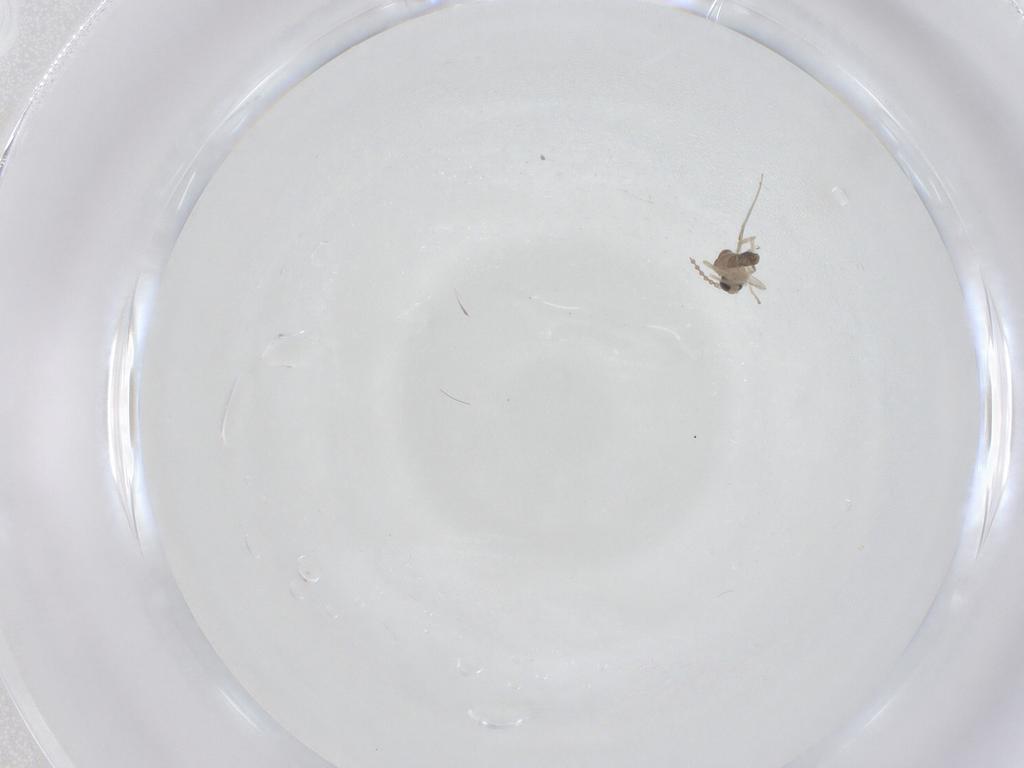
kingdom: Animalia
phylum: Arthropoda
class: Insecta
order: Diptera
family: Cecidomyiidae
